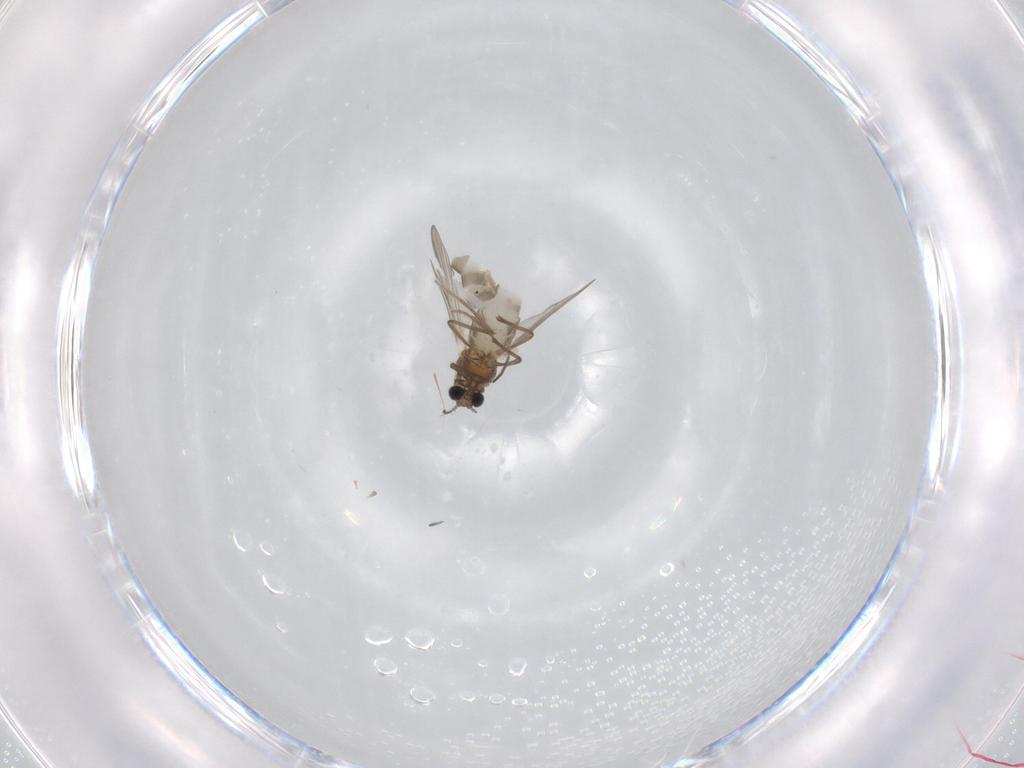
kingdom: Animalia
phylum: Arthropoda
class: Insecta
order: Diptera
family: Chironomidae
